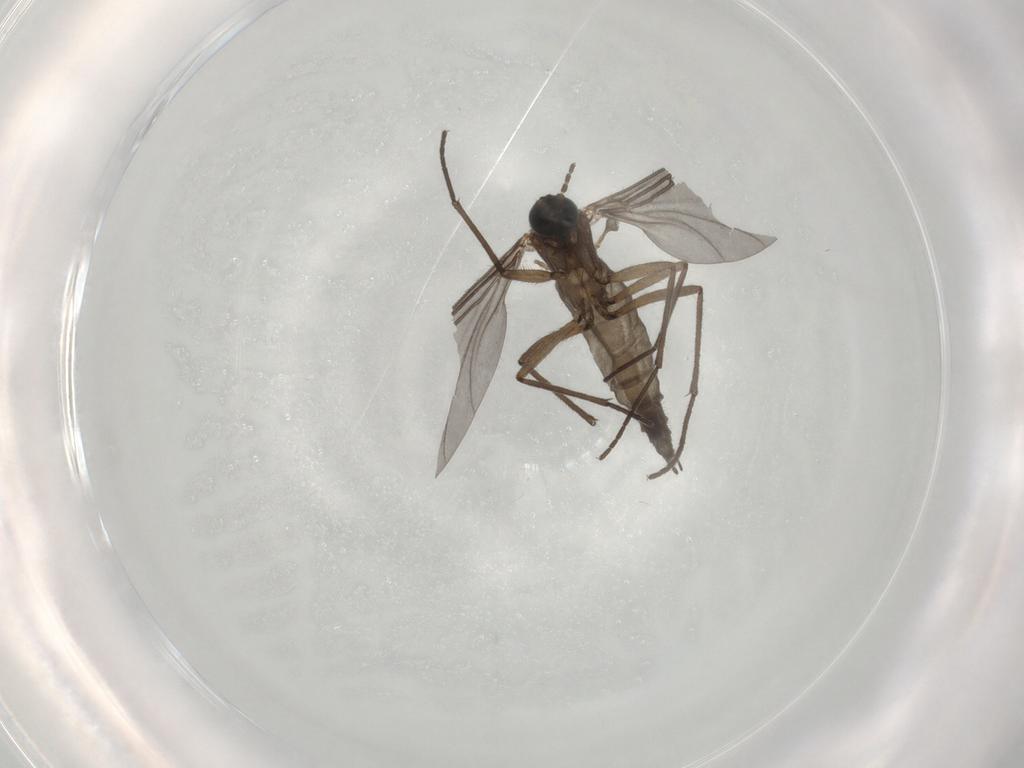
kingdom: Animalia
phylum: Arthropoda
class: Insecta
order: Diptera
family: Sciaridae
